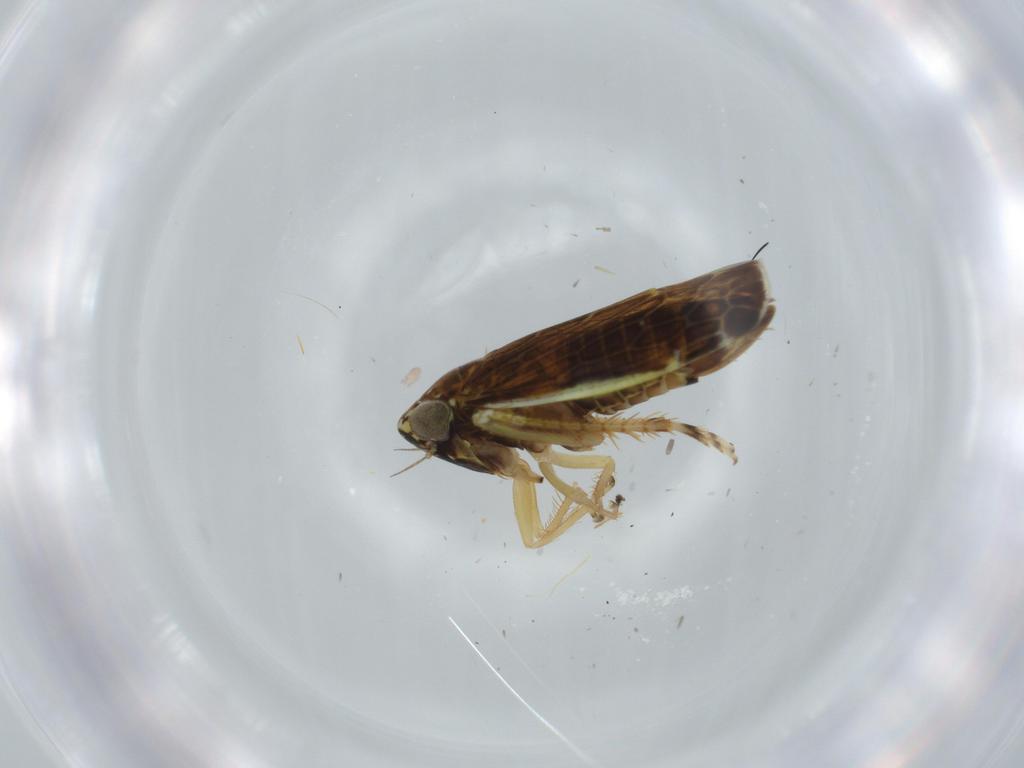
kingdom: Animalia
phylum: Arthropoda
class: Insecta
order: Hemiptera
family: Cicadellidae
